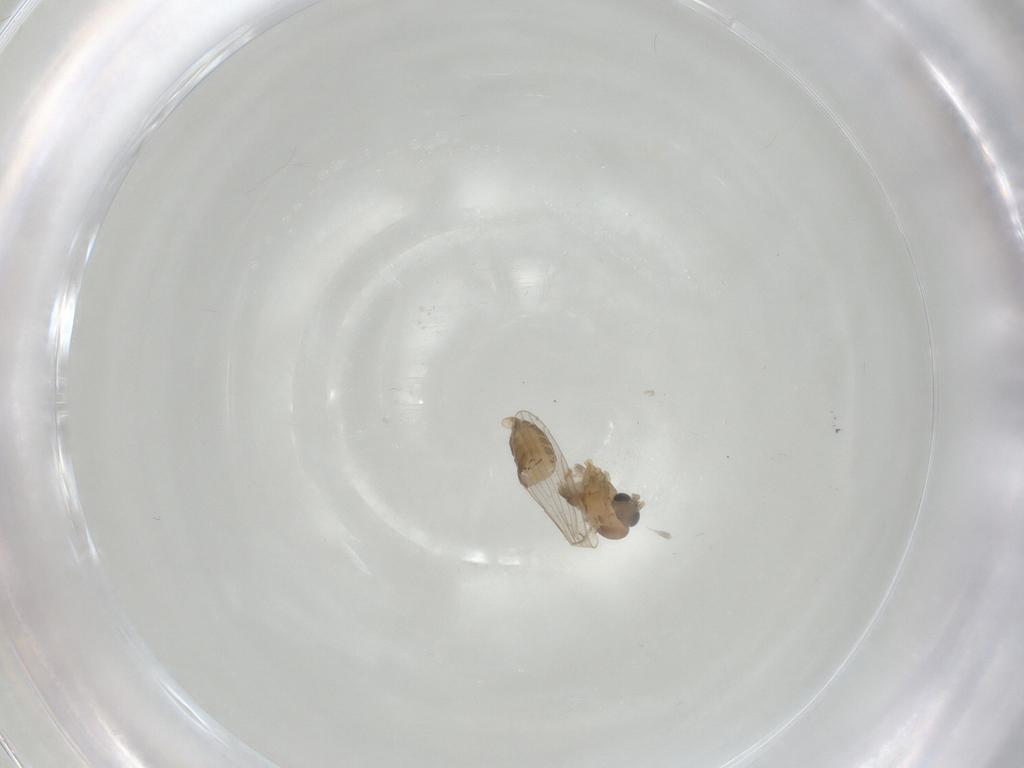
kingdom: Animalia
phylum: Arthropoda
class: Insecta
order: Diptera
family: Psychodidae
